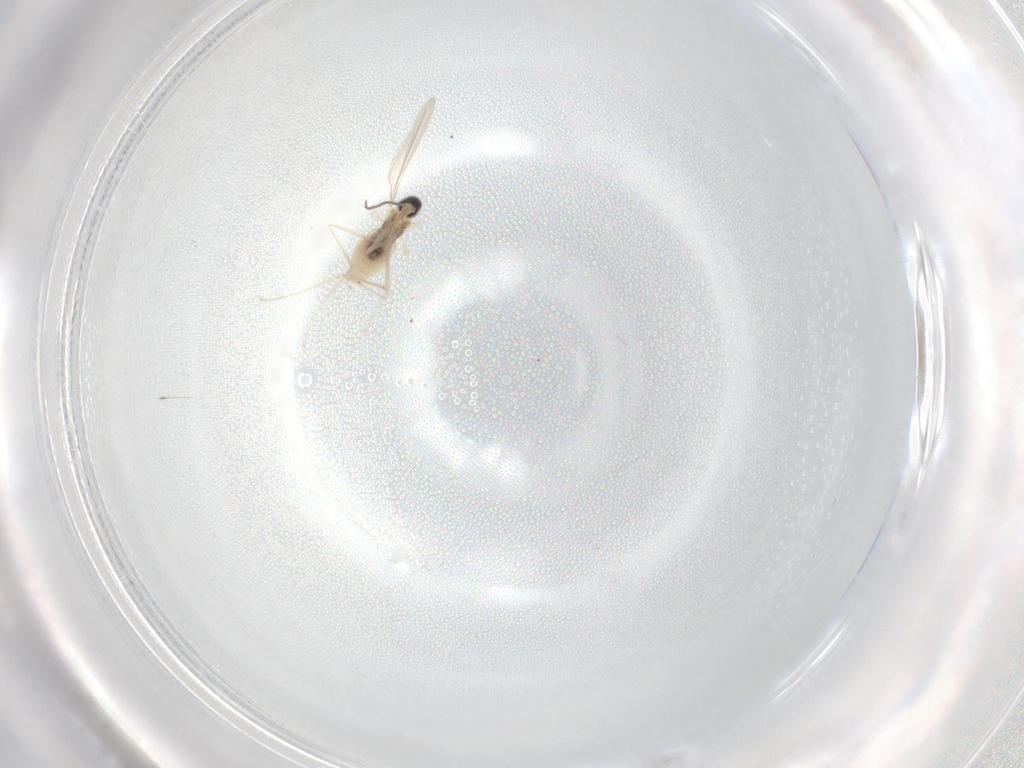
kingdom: Animalia
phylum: Arthropoda
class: Insecta
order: Diptera
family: Cecidomyiidae
